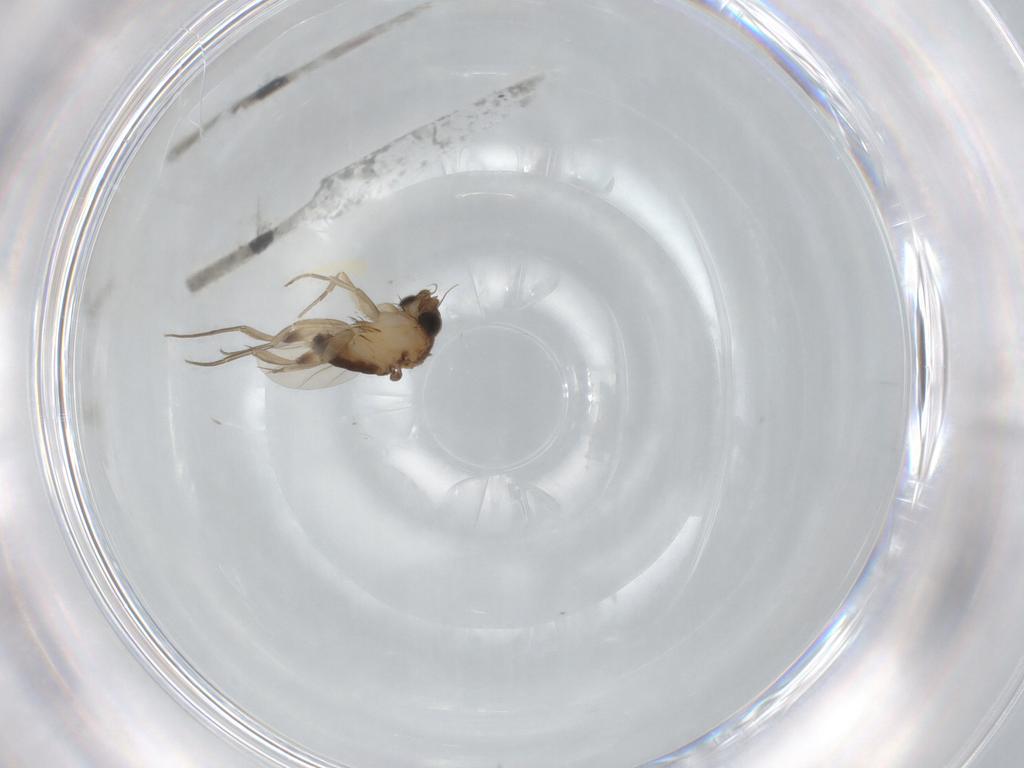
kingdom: Animalia
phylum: Arthropoda
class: Insecta
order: Diptera
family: Phoridae
